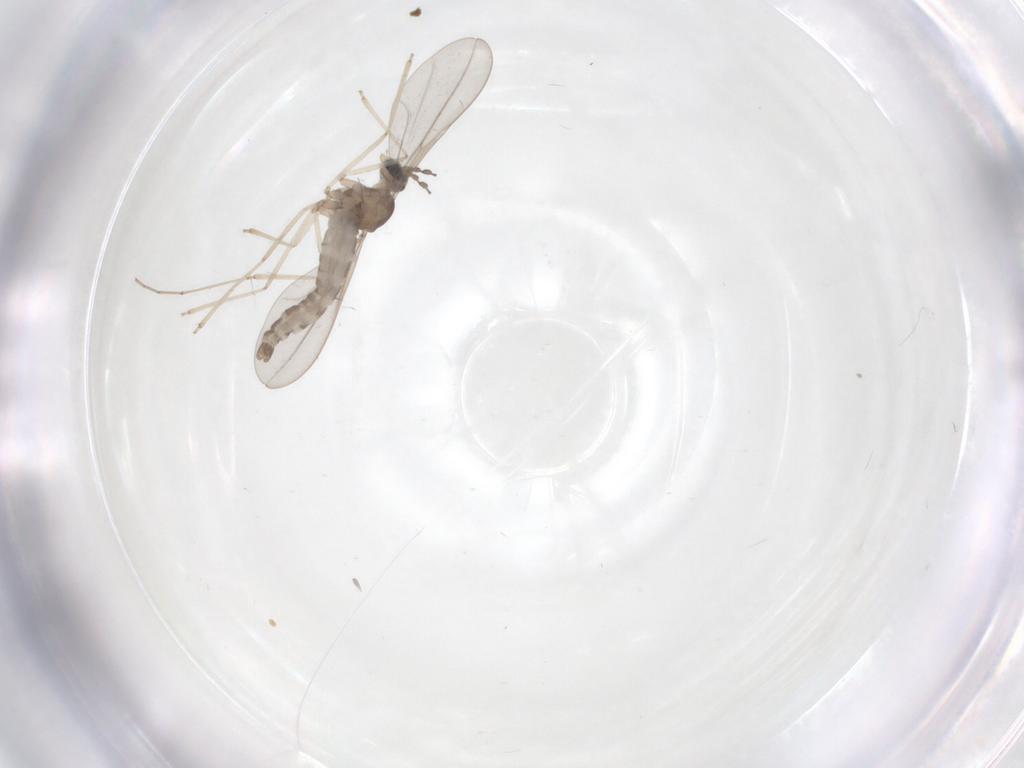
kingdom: Animalia
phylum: Arthropoda
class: Insecta
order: Diptera
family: Cecidomyiidae
